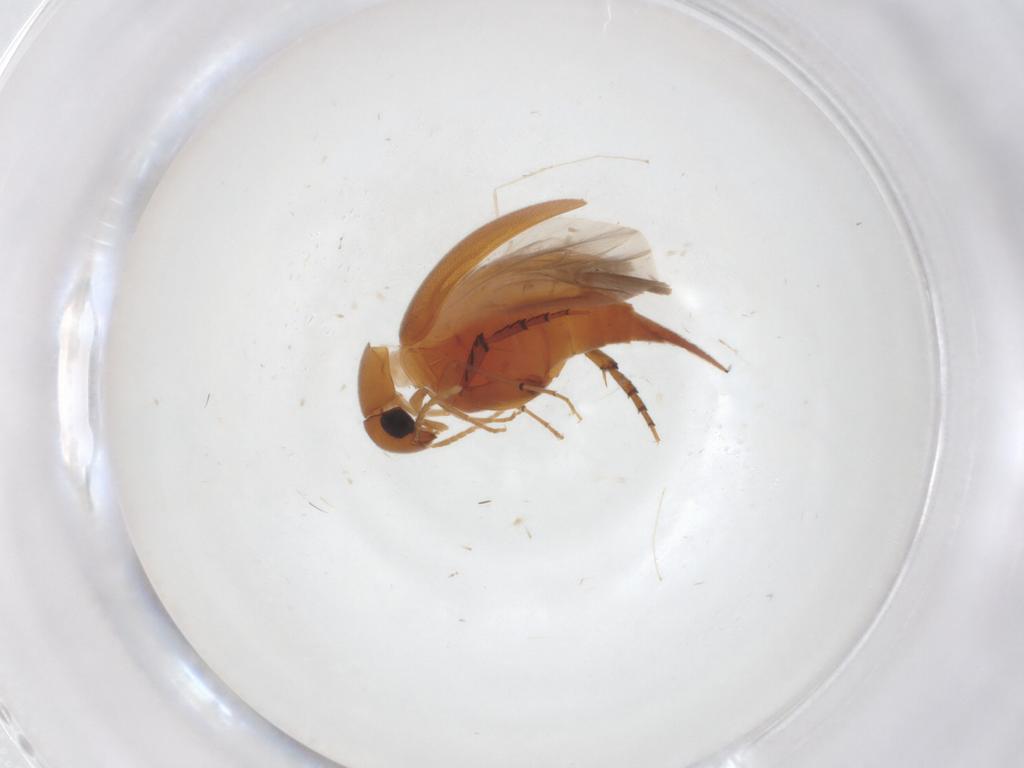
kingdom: Animalia
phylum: Arthropoda
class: Insecta
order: Coleoptera
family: Mordellidae
